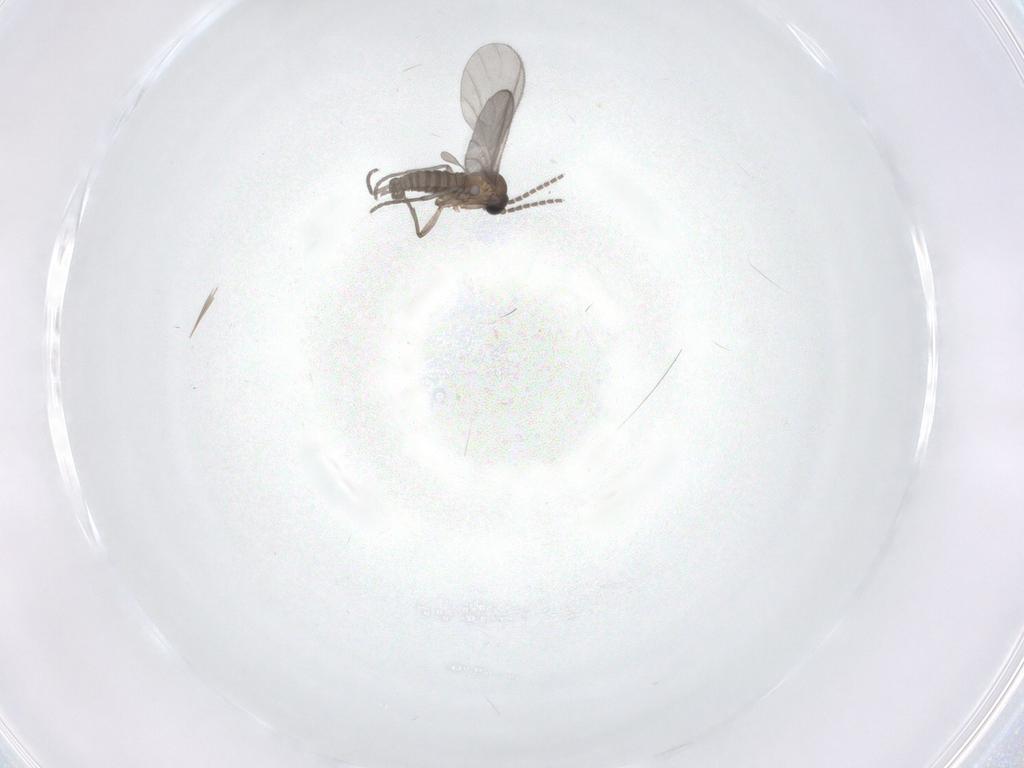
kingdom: Animalia
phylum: Arthropoda
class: Insecta
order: Diptera
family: Sciaridae
